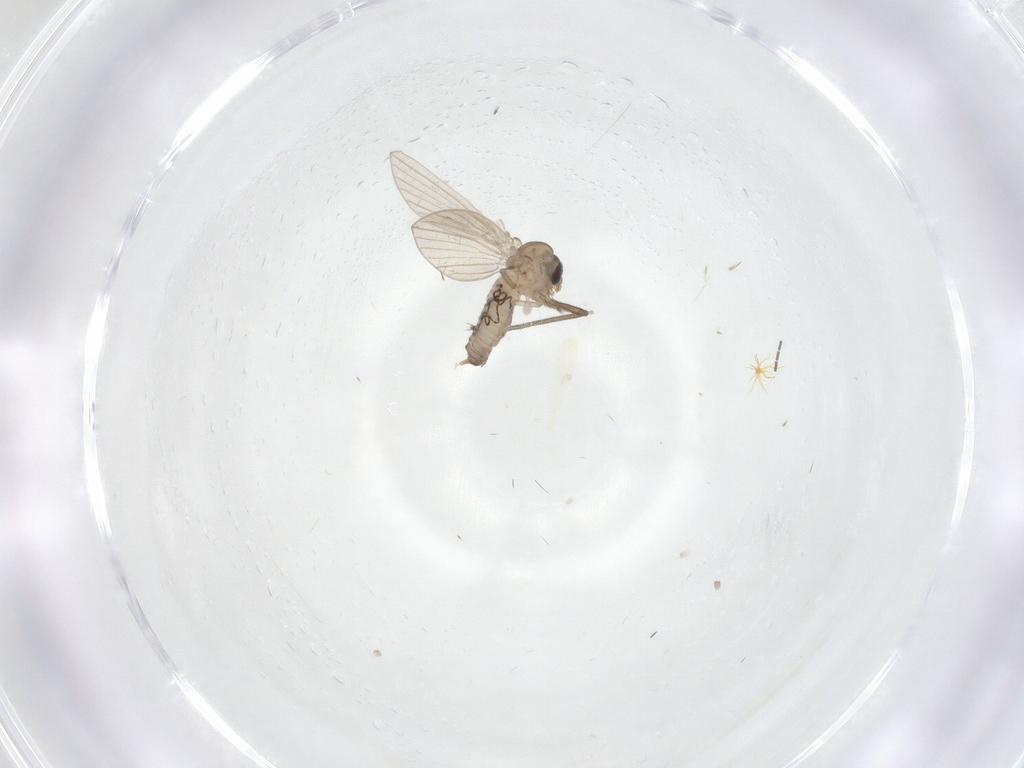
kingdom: Animalia
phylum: Arthropoda
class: Insecta
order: Diptera
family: Psychodidae
